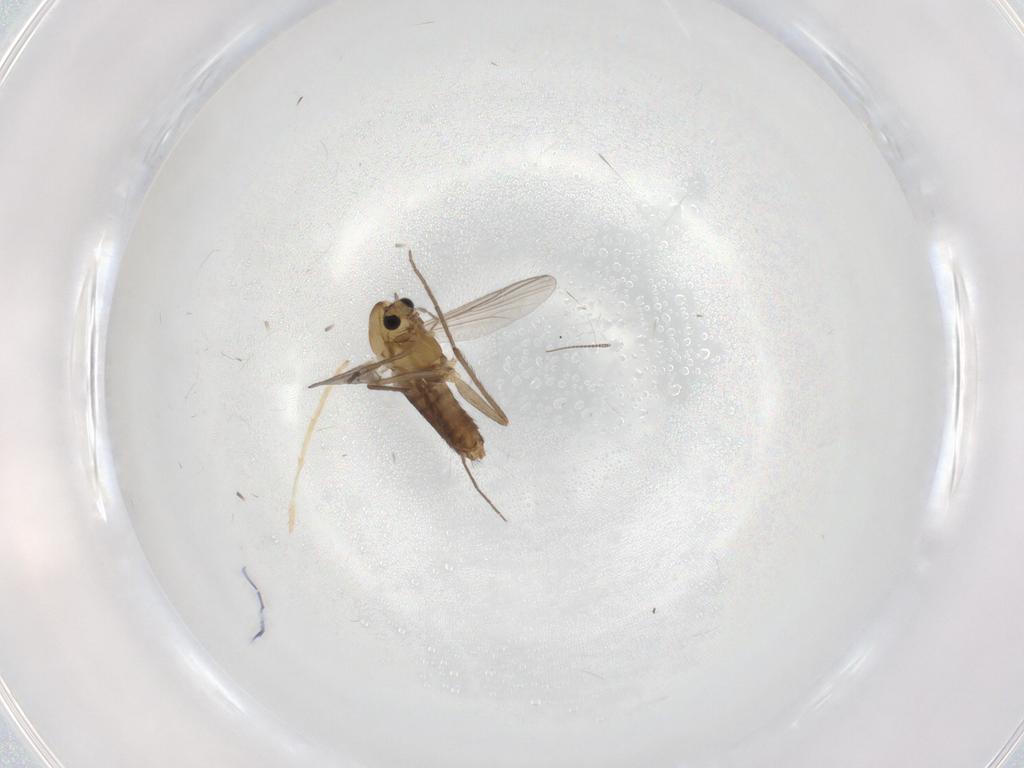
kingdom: Animalia
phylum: Arthropoda
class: Insecta
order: Diptera
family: Chironomidae
